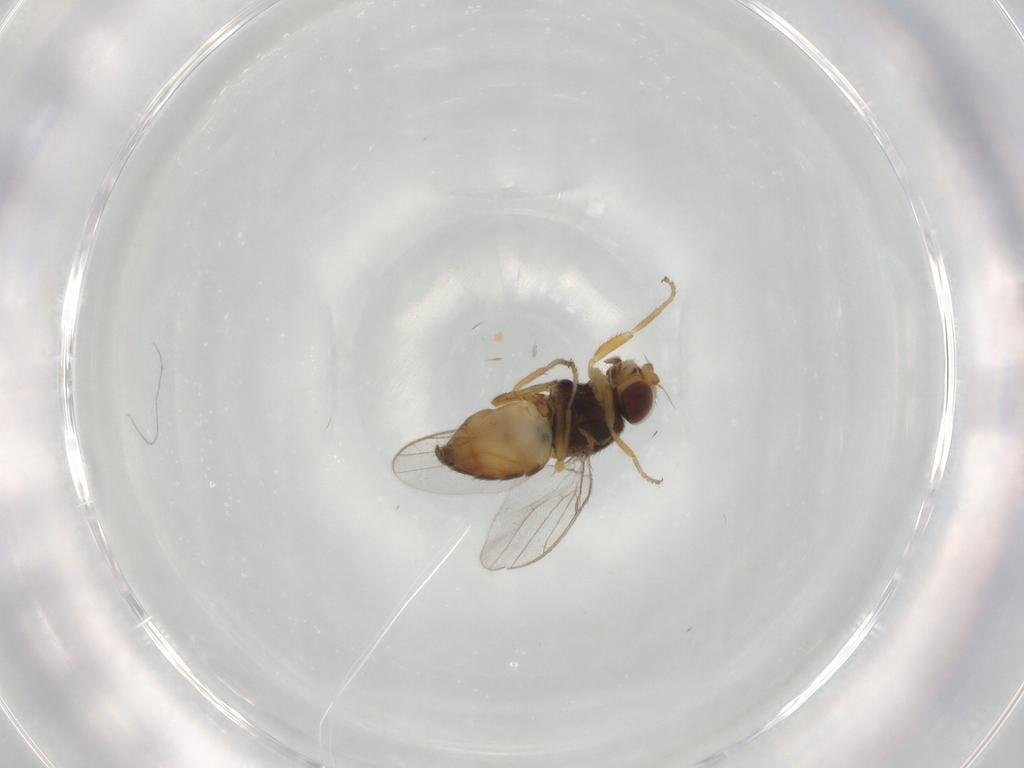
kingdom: Animalia
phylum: Arthropoda
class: Insecta
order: Diptera
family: Chloropidae
